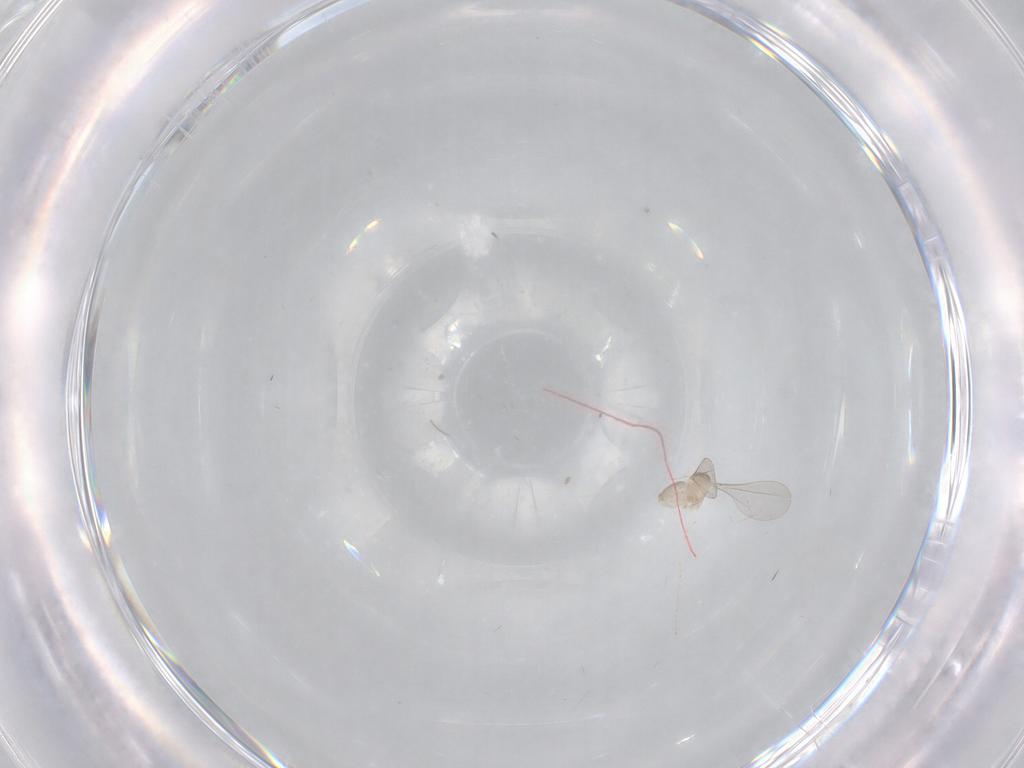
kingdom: Animalia
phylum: Arthropoda
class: Insecta
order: Diptera
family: Cecidomyiidae
